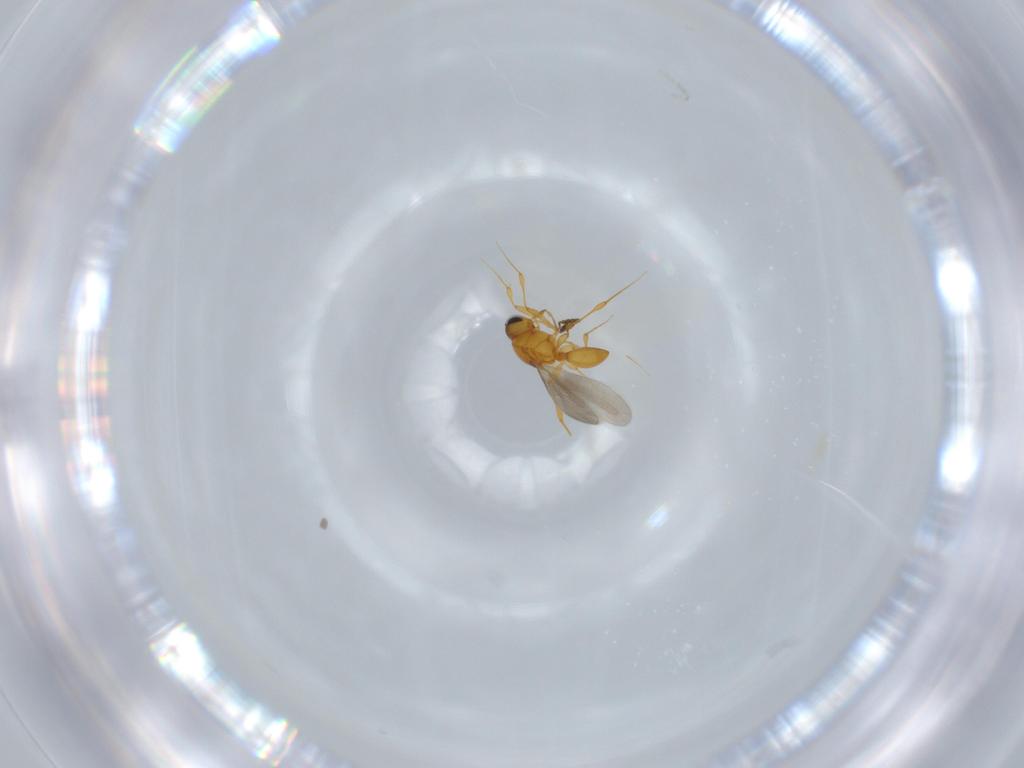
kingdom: Animalia
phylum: Arthropoda
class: Insecta
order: Hymenoptera
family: Platygastridae
